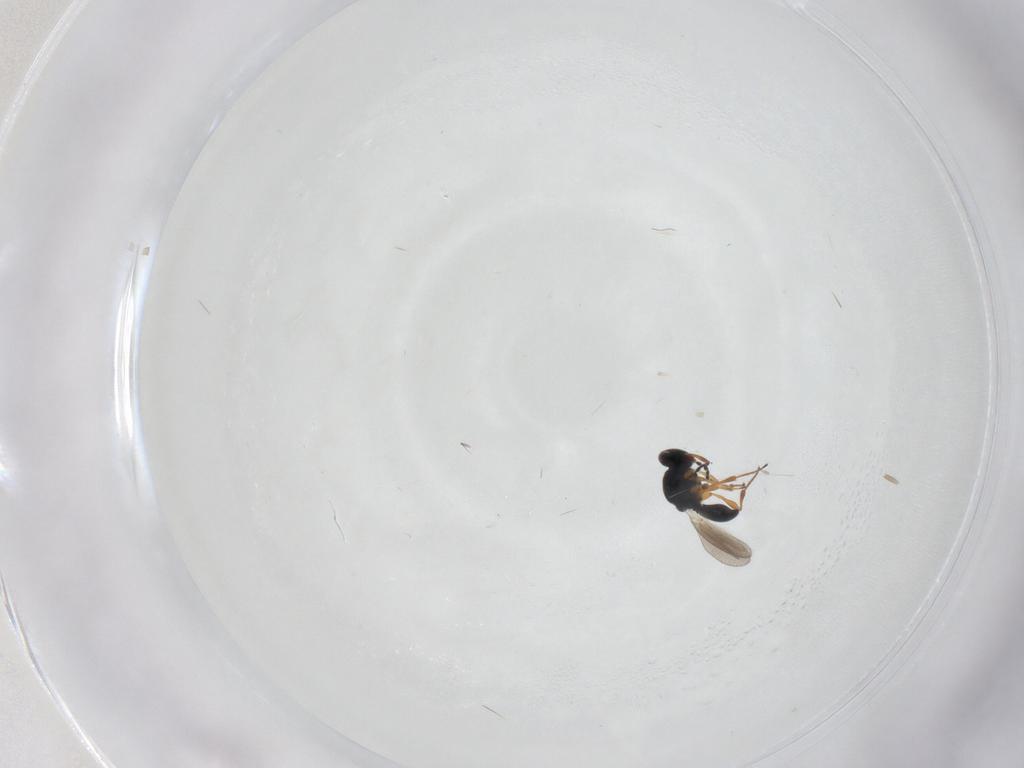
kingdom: Animalia
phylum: Arthropoda
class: Insecta
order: Hymenoptera
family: Platygastridae
